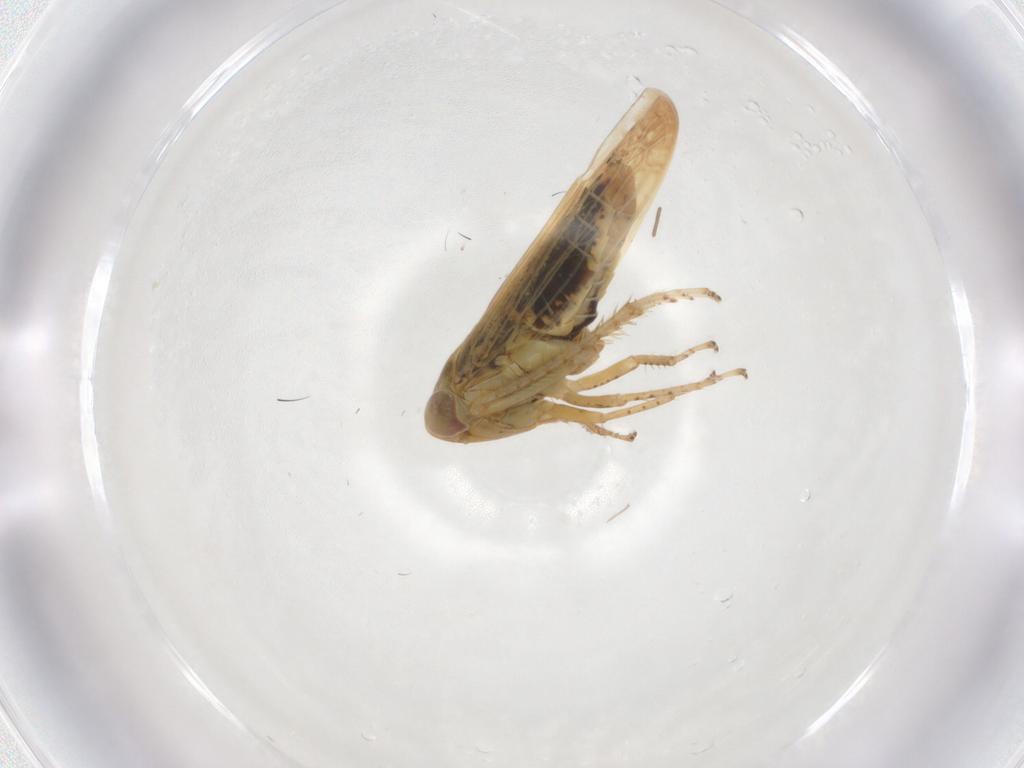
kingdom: Animalia
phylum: Arthropoda
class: Insecta
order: Hemiptera
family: Cicadellidae
